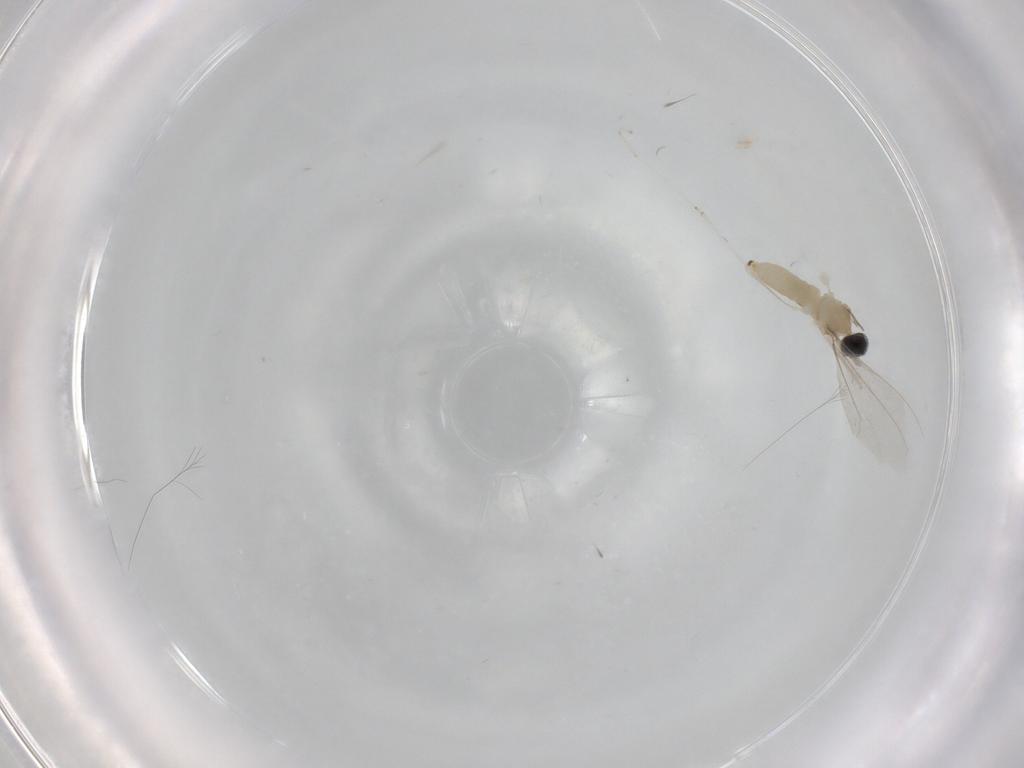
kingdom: Animalia
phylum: Arthropoda
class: Insecta
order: Diptera
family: Cecidomyiidae
